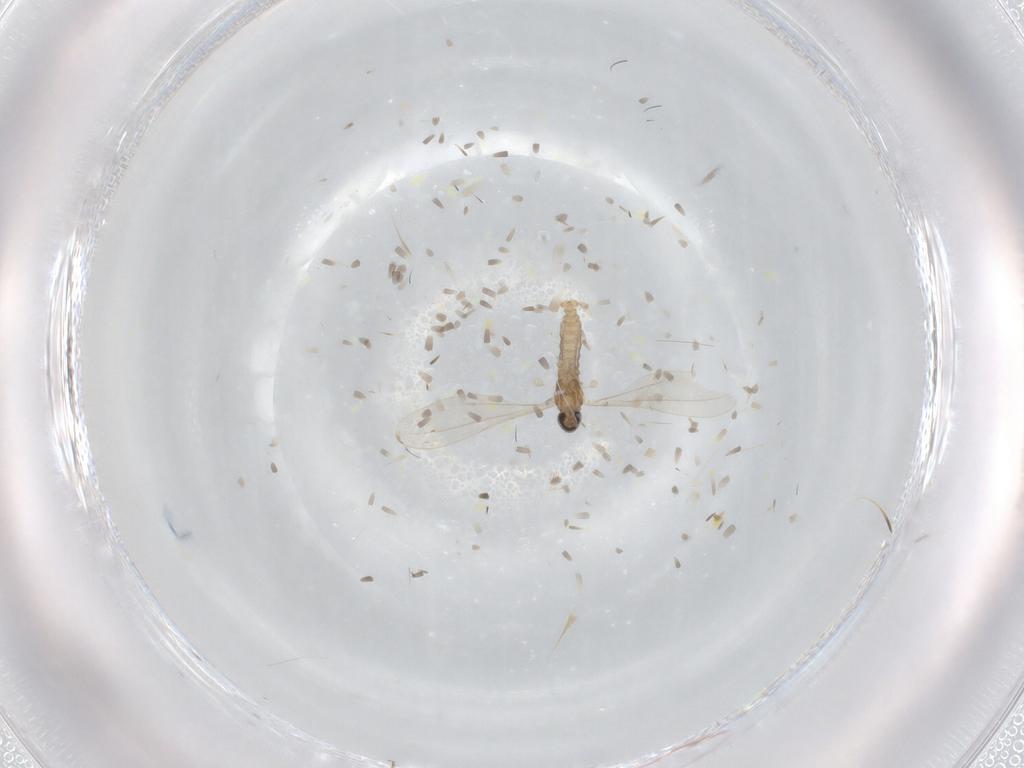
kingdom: Animalia
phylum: Arthropoda
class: Insecta
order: Diptera
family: Cecidomyiidae
